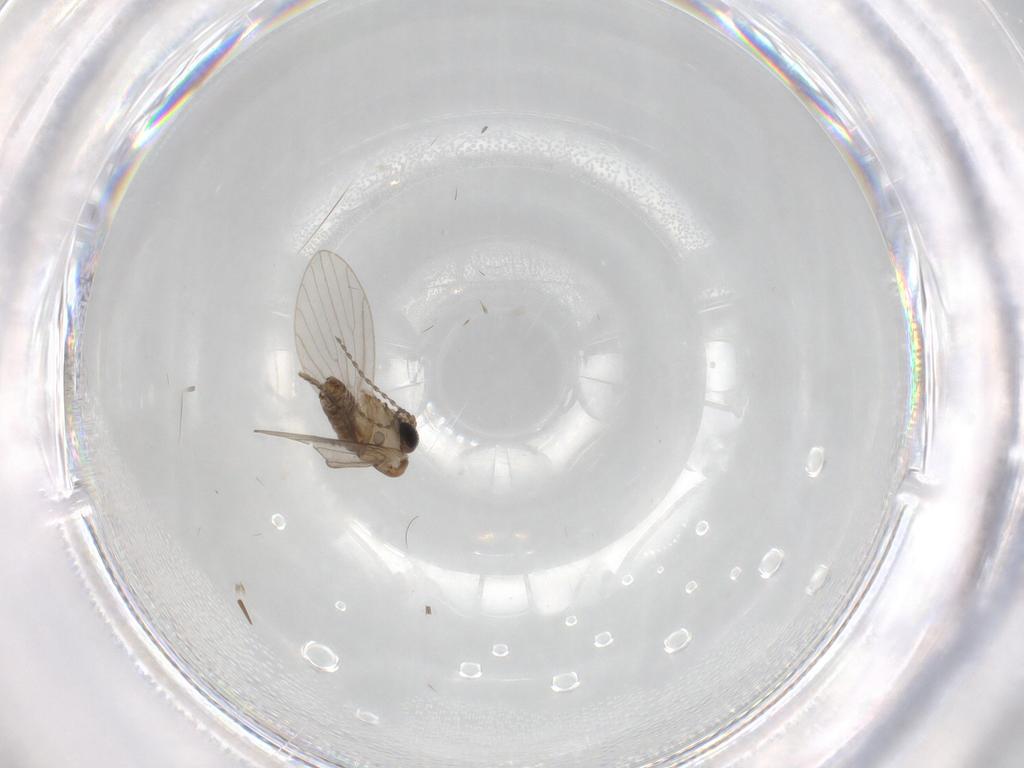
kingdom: Animalia
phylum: Arthropoda
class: Insecta
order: Diptera
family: Psychodidae
